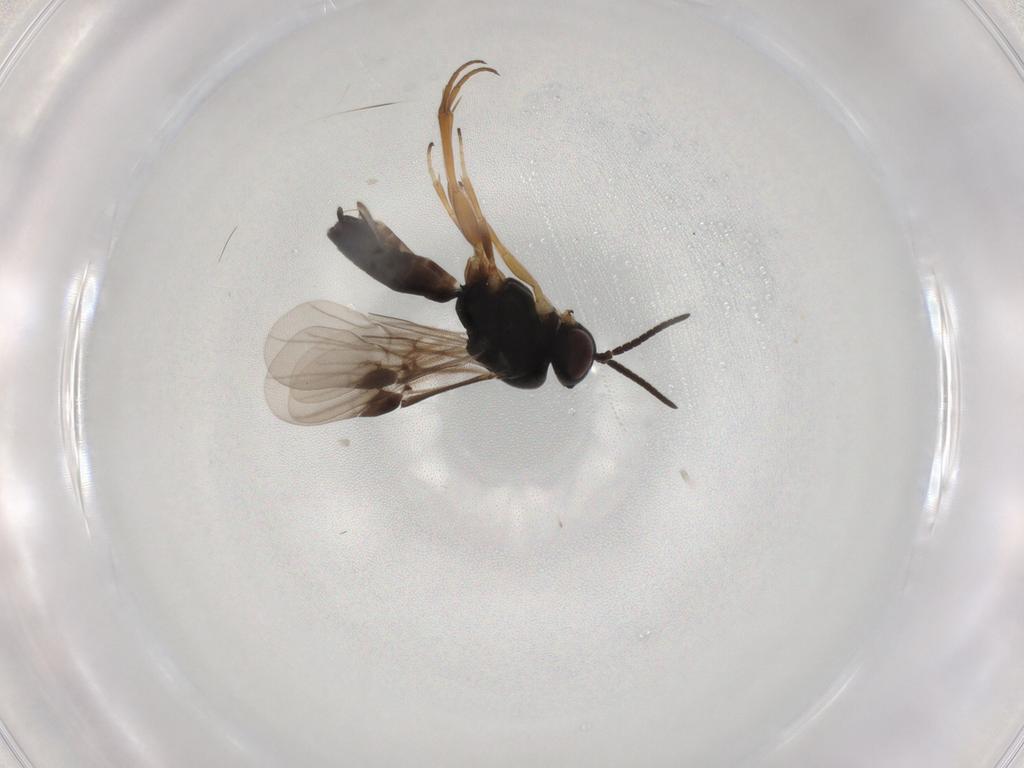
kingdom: Animalia
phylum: Arthropoda
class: Insecta
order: Hymenoptera
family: Braconidae
